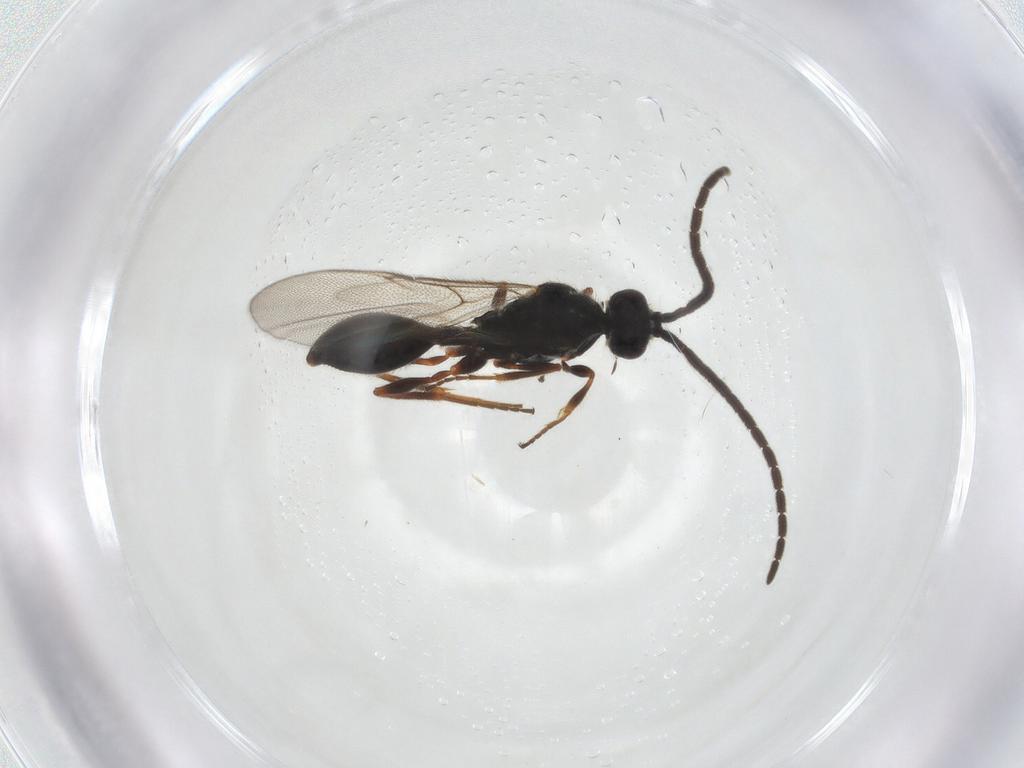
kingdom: Animalia
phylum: Arthropoda
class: Insecta
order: Hymenoptera
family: Diapriidae
